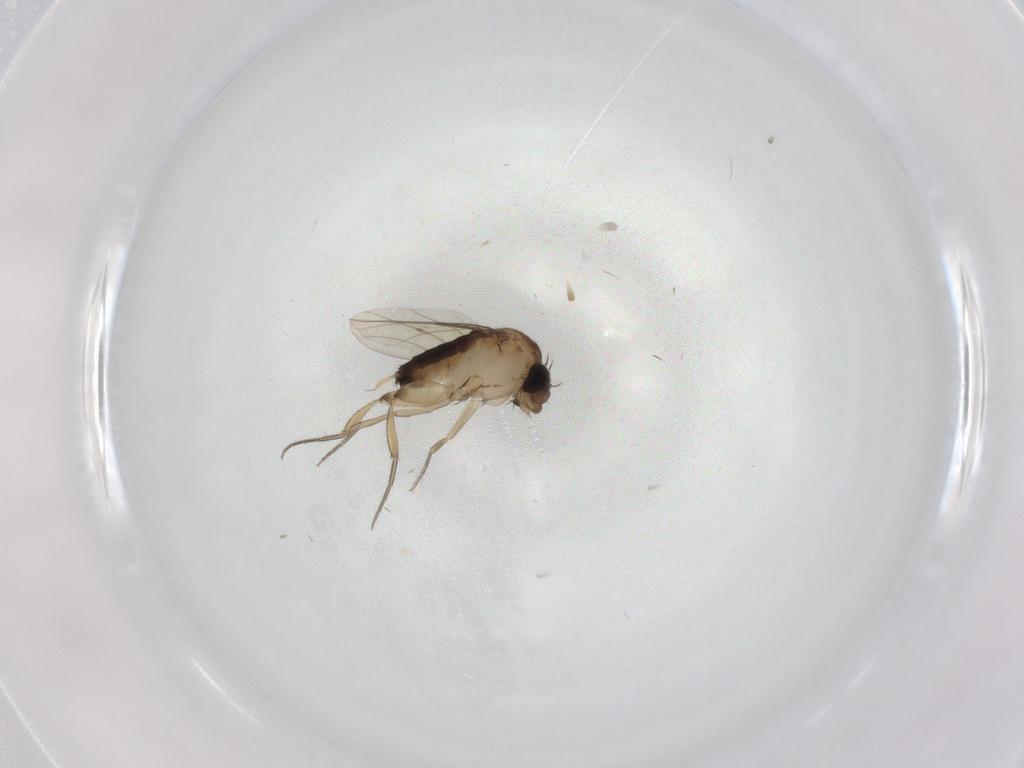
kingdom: Animalia
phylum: Arthropoda
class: Insecta
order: Diptera
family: Phoridae
